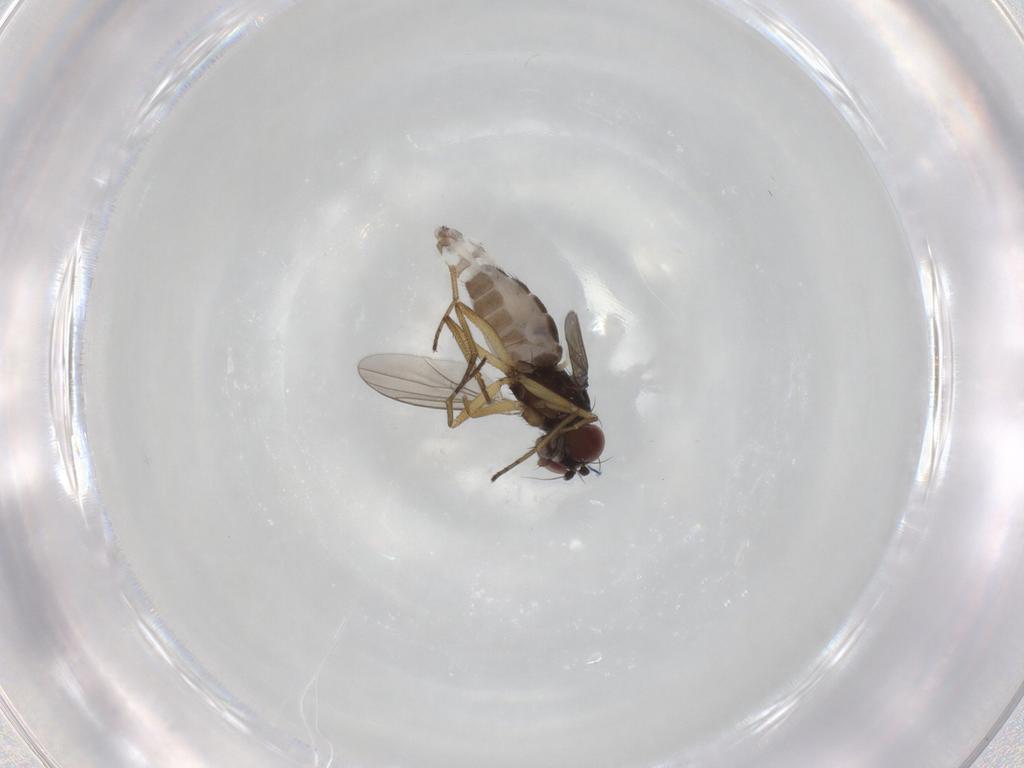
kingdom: Animalia
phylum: Arthropoda
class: Insecta
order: Diptera
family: Dolichopodidae
